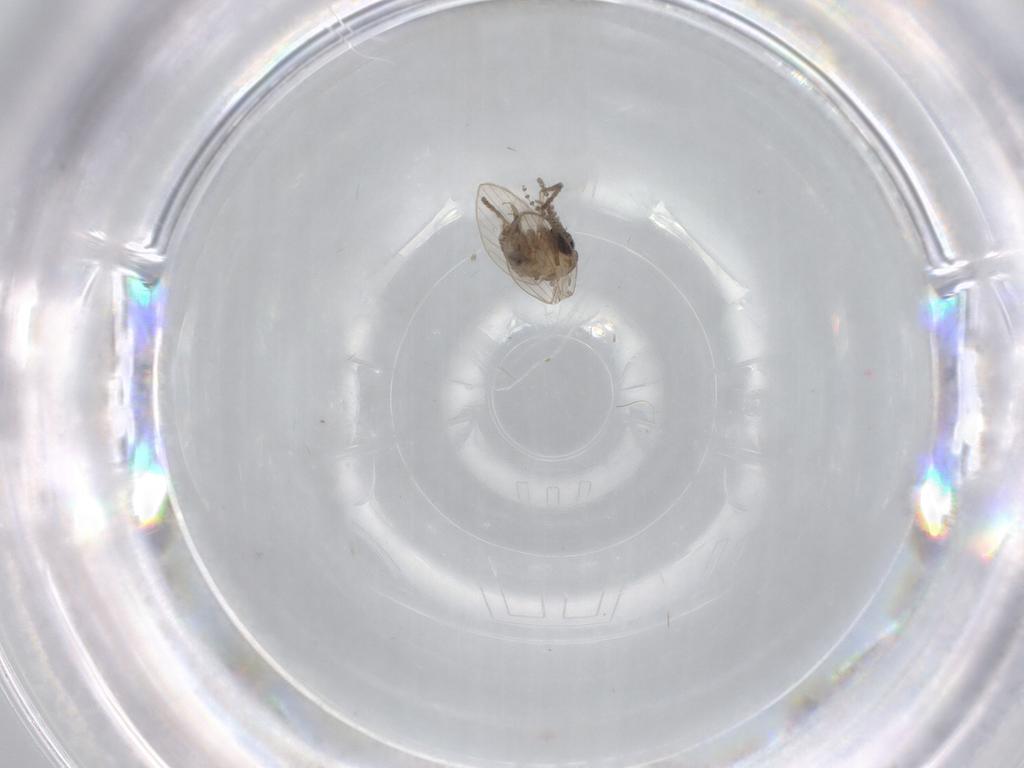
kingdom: Animalia
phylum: Arthropoda
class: Insecta
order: Diptera
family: Psychodidae
